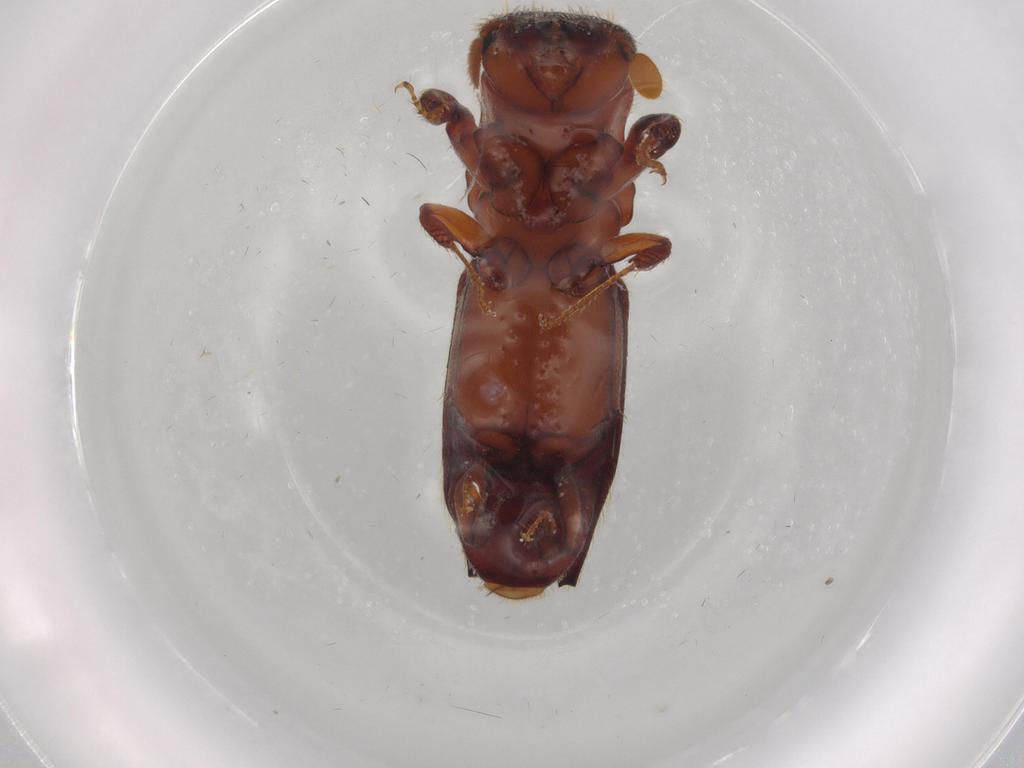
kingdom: Animalia
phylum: Arthropoda
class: Insecta
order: Coleoptera
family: Curculionidae
